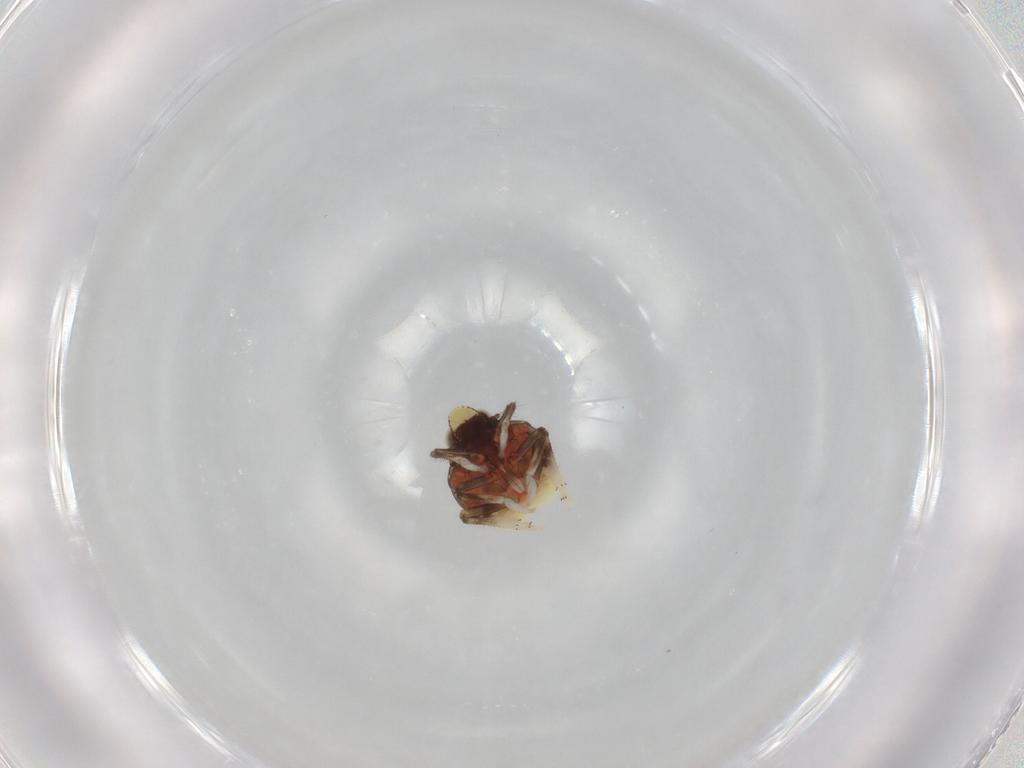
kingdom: Animalia
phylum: Arthropoda
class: Insecta
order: Hemiptera
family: Issidae
